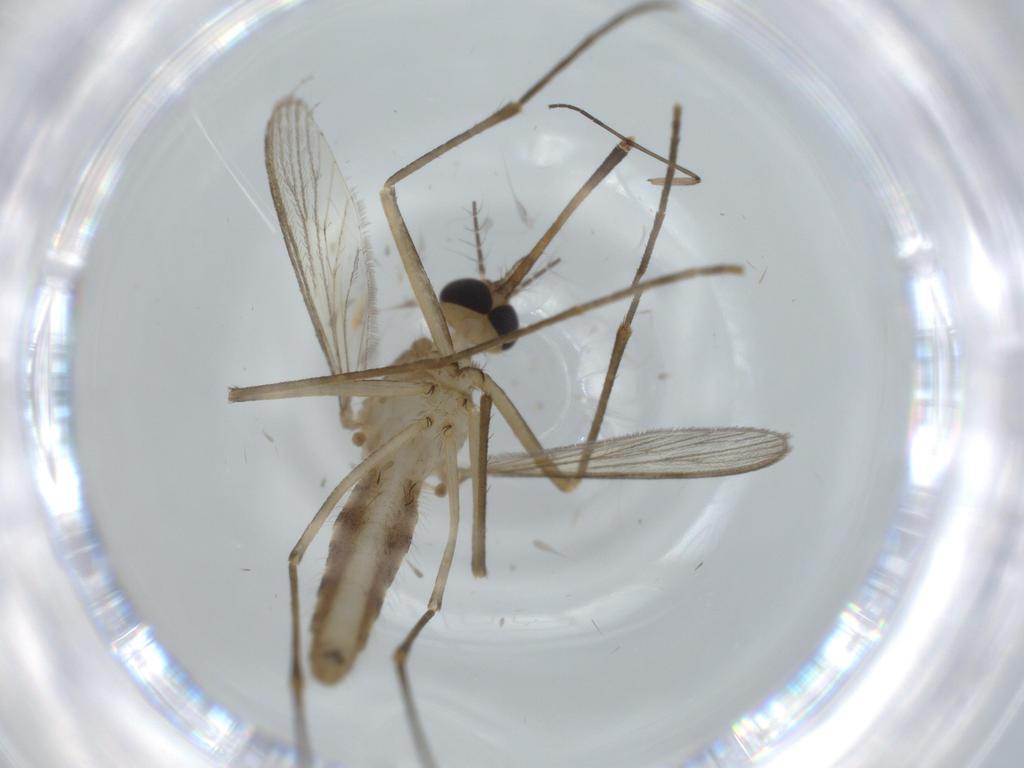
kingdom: Animalia
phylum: Arthropoda
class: Insecta
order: Diptera
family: Sciaridae
